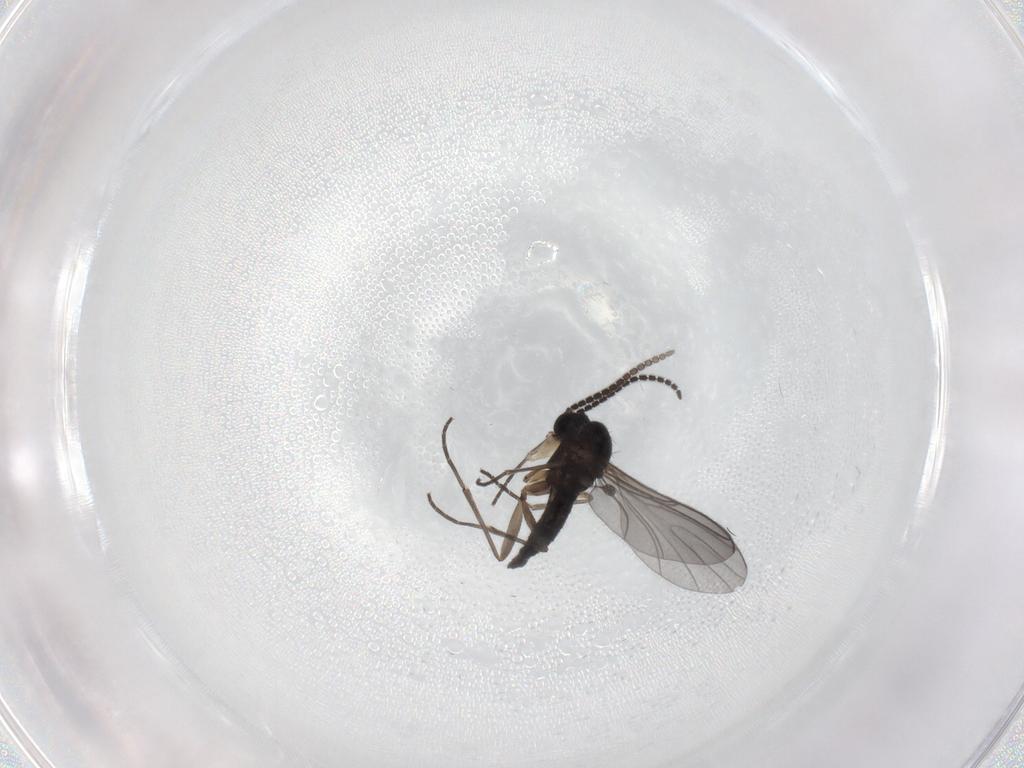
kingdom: Animalia
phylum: Arthropoda
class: Insecta
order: Diptera
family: Sciaridae
